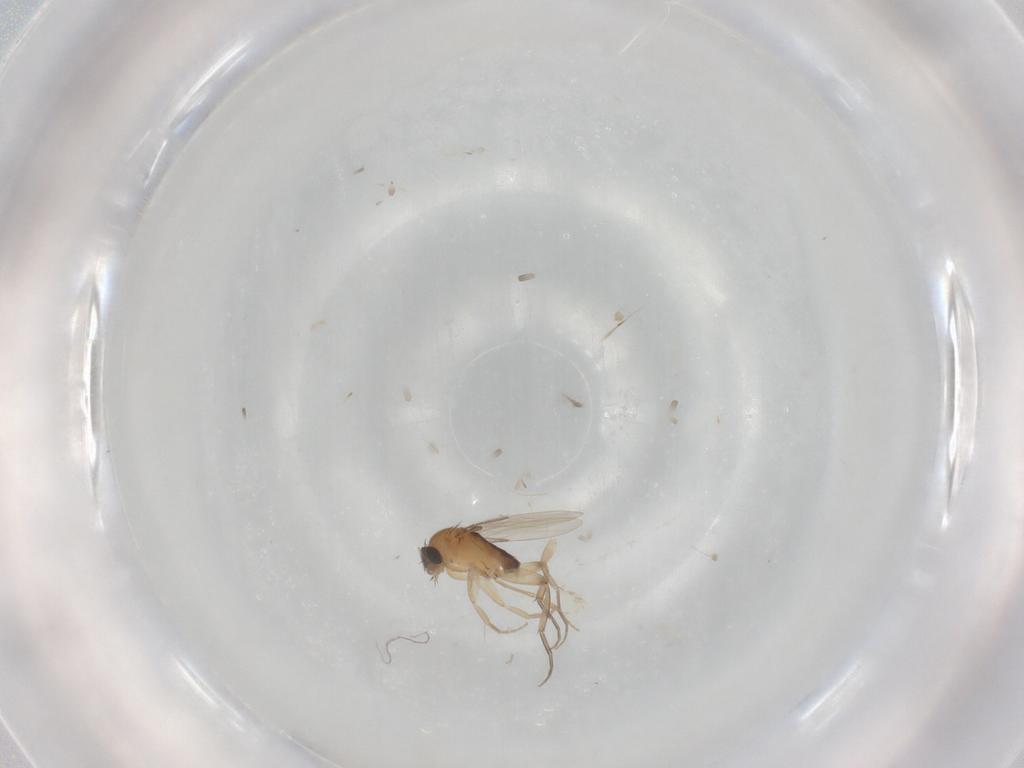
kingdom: Animalia
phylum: Arthropoda
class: Insecta
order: Diptera
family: Phoridae
